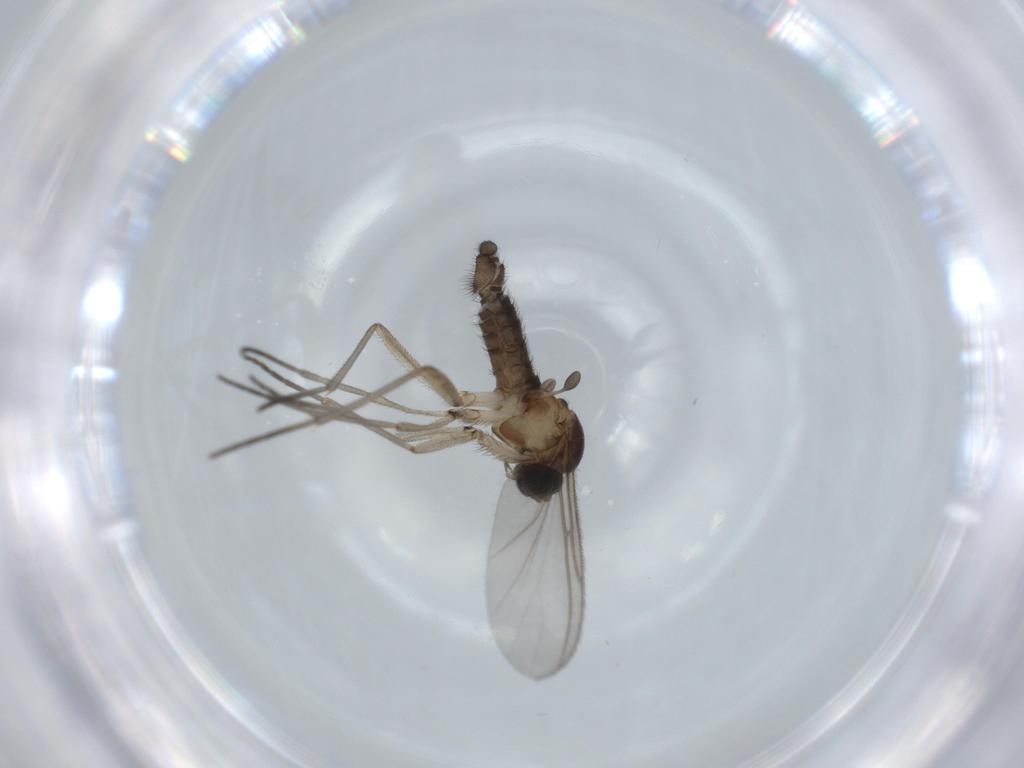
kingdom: Animalia
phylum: Arthropoda
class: Insecta
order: Diptera
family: Sciaridae
